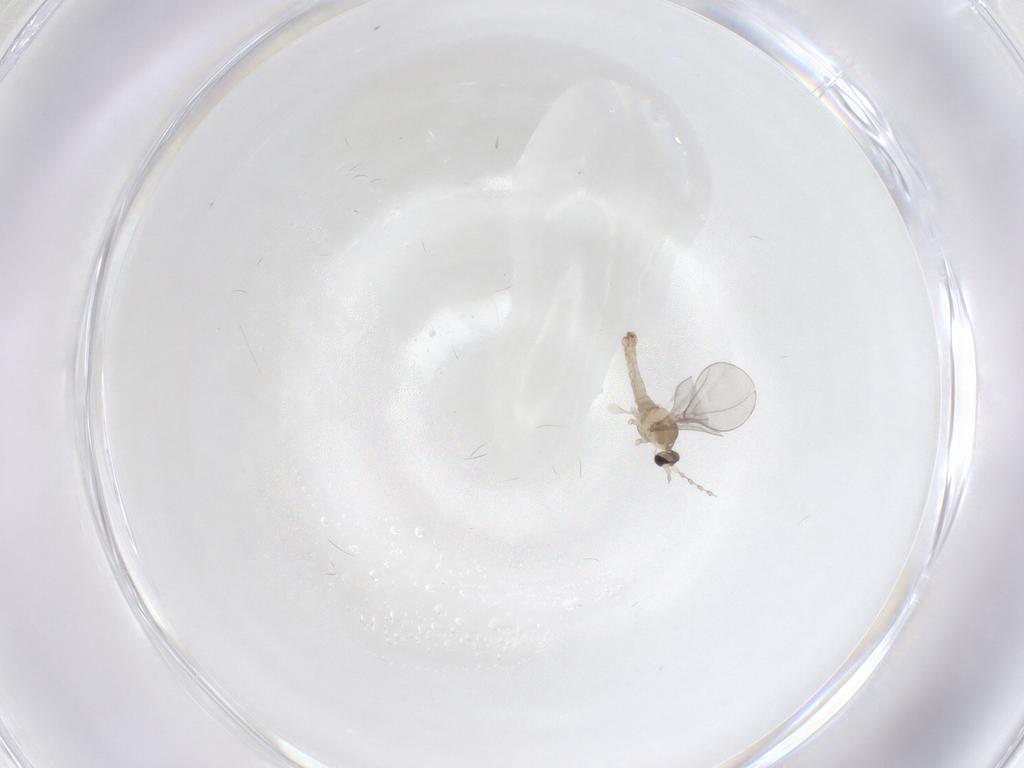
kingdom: Animalia
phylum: Arthropoda
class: Insecta
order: Diptera
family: Cecidomyiidae
